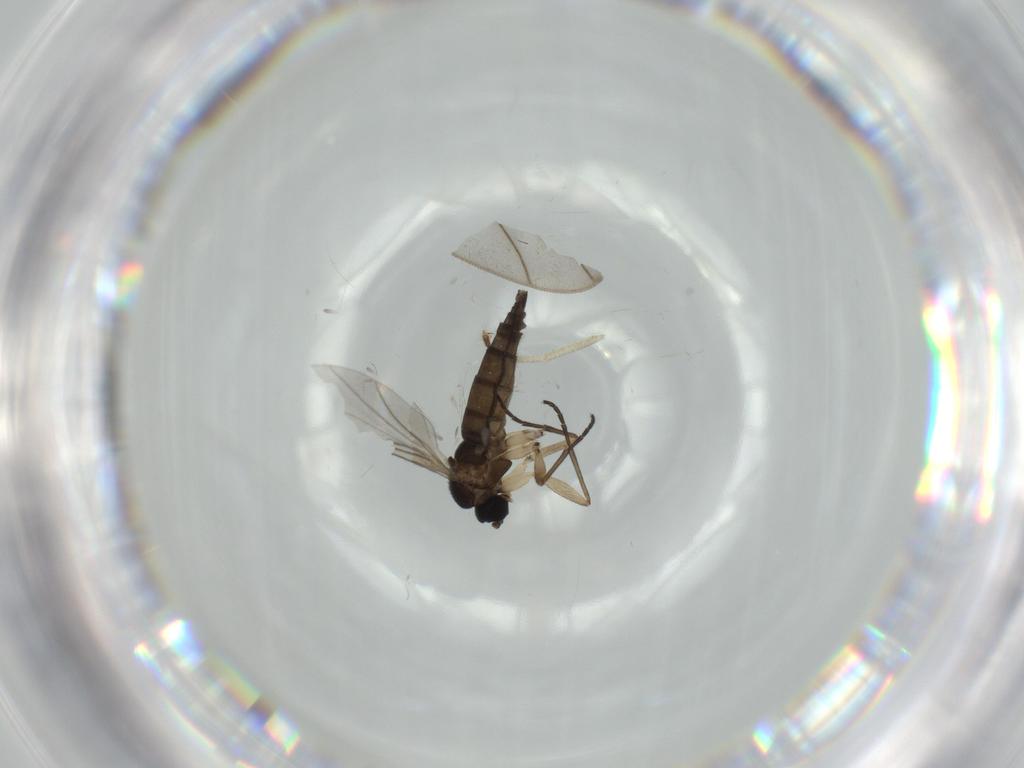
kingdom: Animalia
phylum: Arthropoda
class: Insecta
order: Diptera
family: Sciaridae
